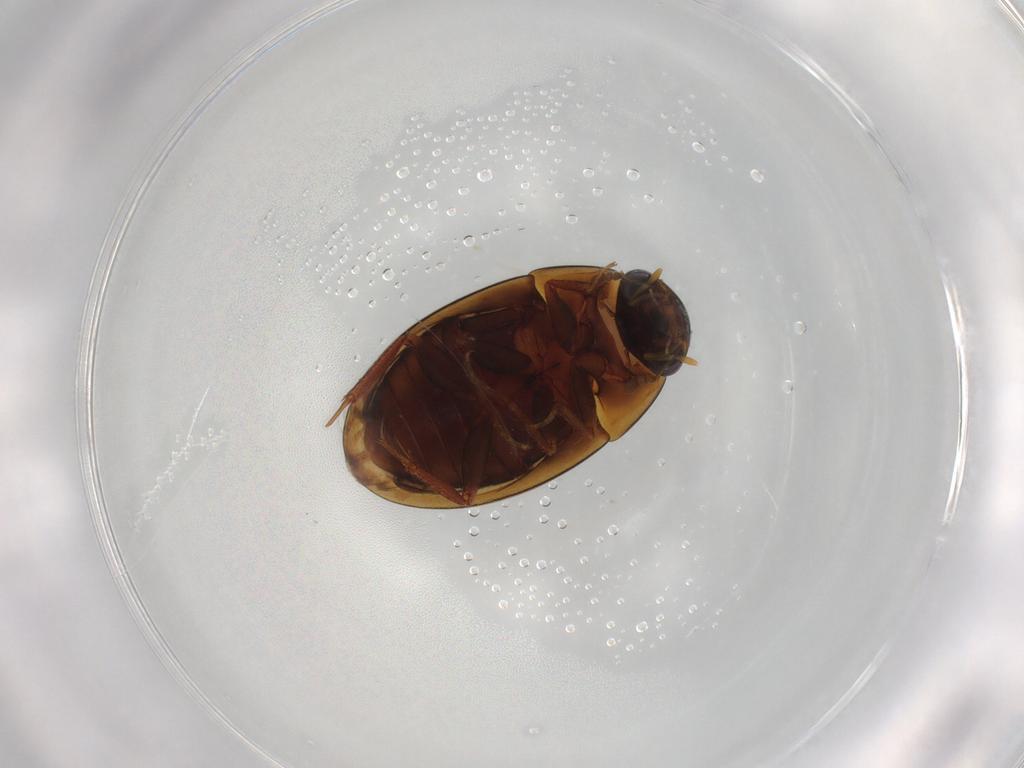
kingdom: Animalia
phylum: Arthropoda
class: Insecta
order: Coleoptera
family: Hydrophilidae
